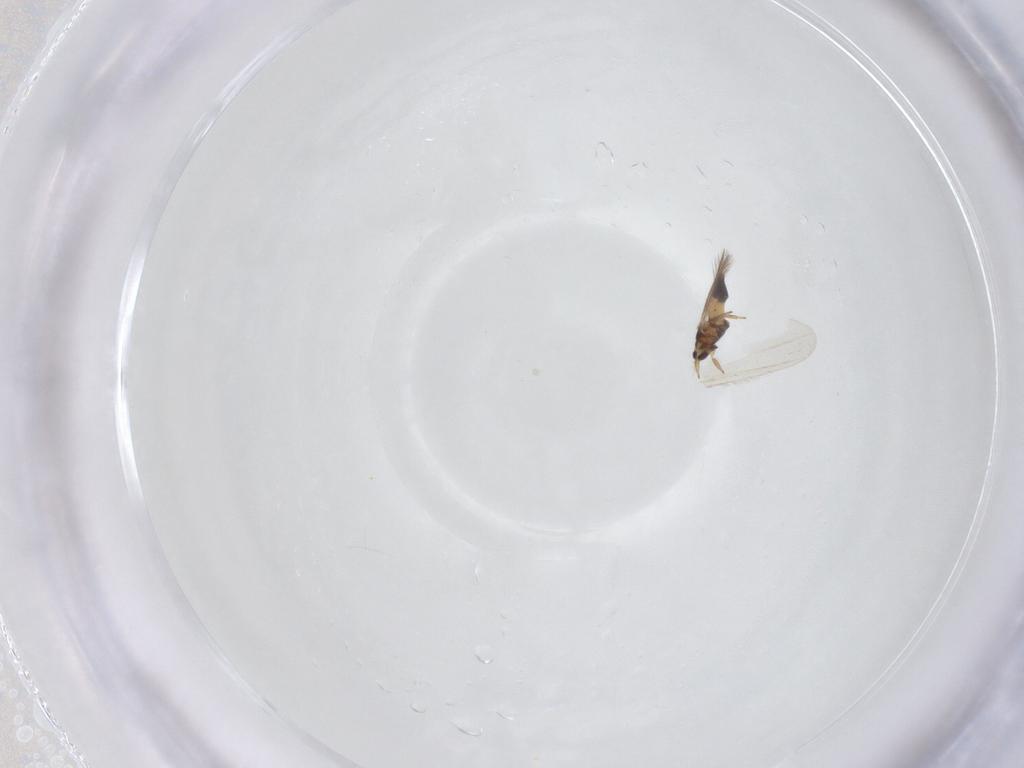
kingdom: Animalia
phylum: Arthropoda
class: Insecta
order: Thysanoptera
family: Thripidae
